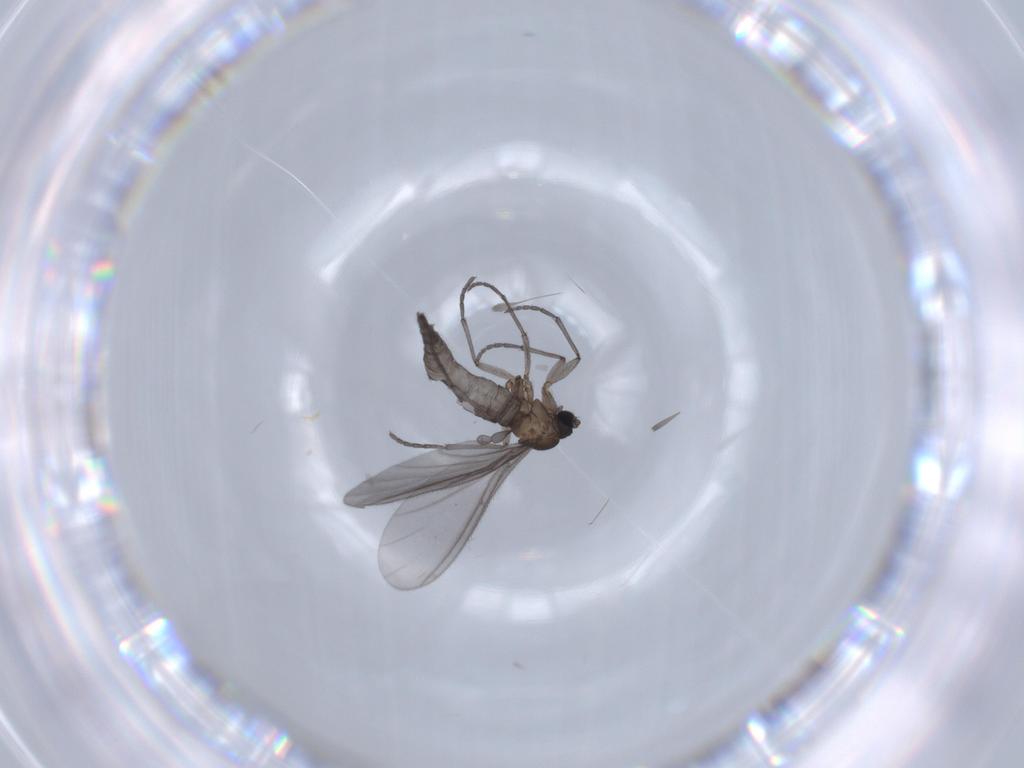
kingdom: Animalia
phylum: Arthropoda
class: Insecta
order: Diptera
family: Sciaridae
